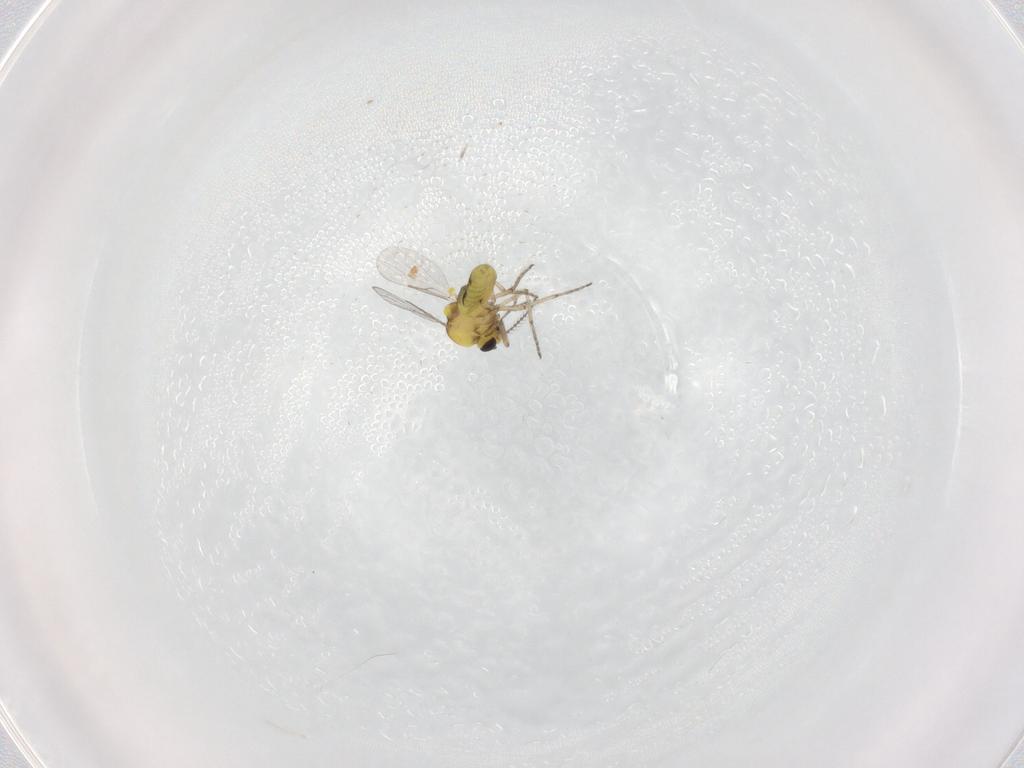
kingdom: Animalia
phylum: Arthropoda
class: Insecta
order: Diptera
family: Ceratopogonidae
